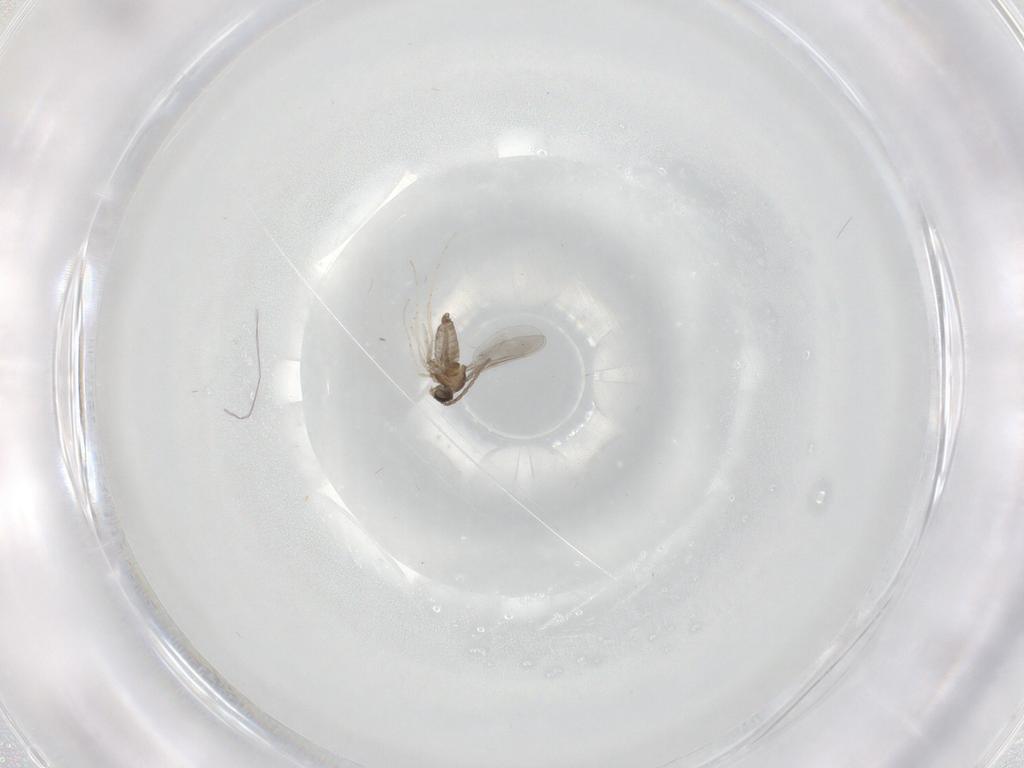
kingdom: Animalia
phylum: Arthropoda
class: Insecta
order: Diptera
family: Cecidomyiidae
